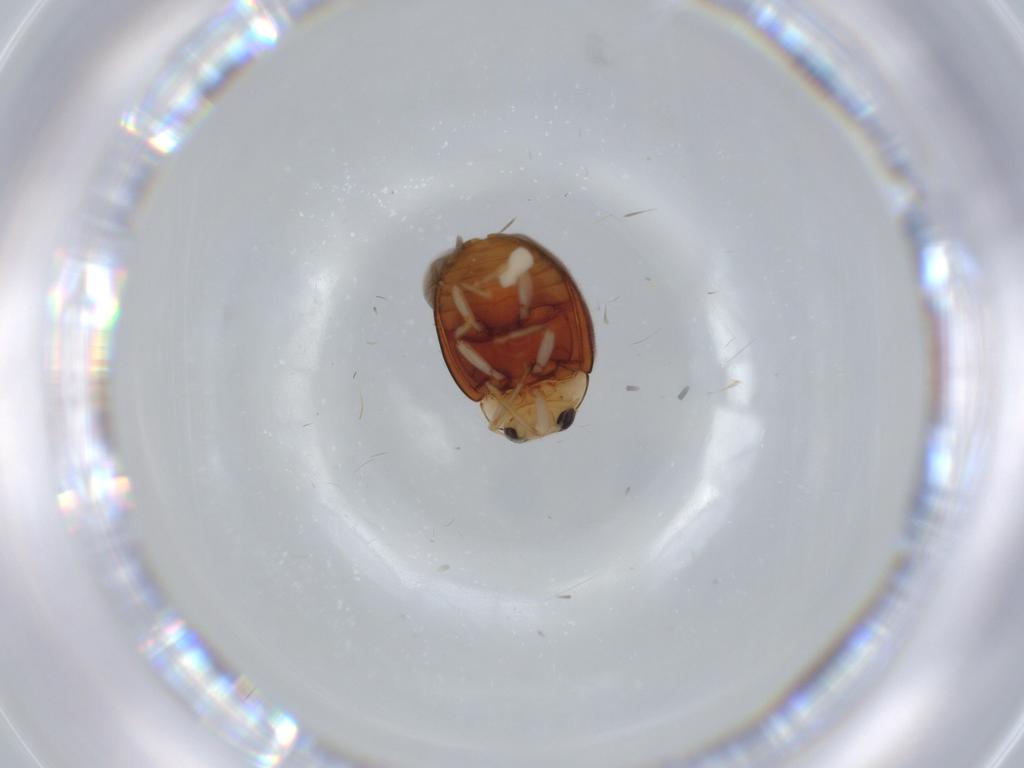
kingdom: Animalia
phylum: Arthropoda
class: Insecta
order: Coleoptera
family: Coccinellidae
